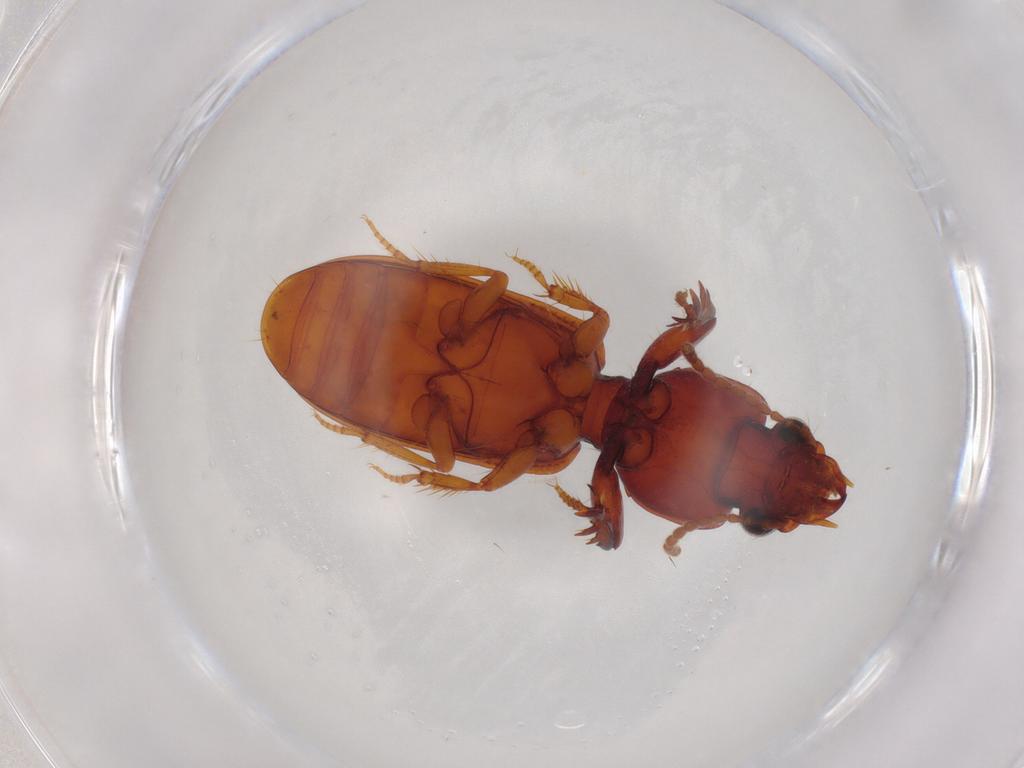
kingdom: Animalia
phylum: Arthropoda
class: Insecta
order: Coleoptera
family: Carabidae
